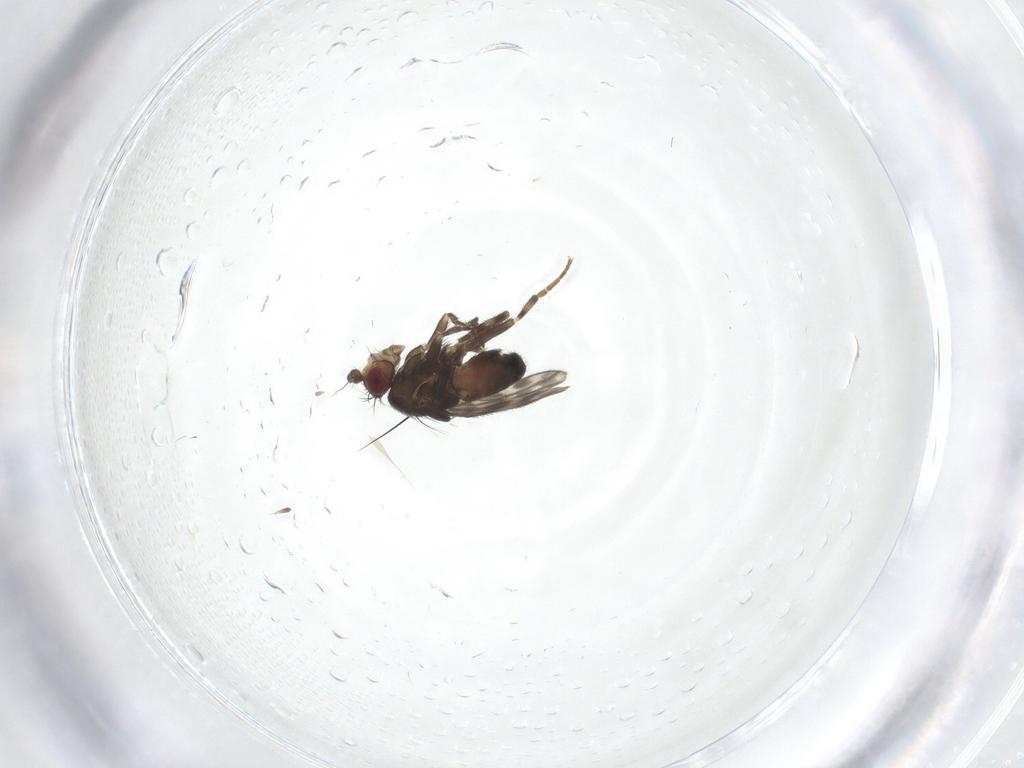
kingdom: Animalia
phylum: Arthropoda
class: Insecta
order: Diptera
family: Sphaeroceridae
